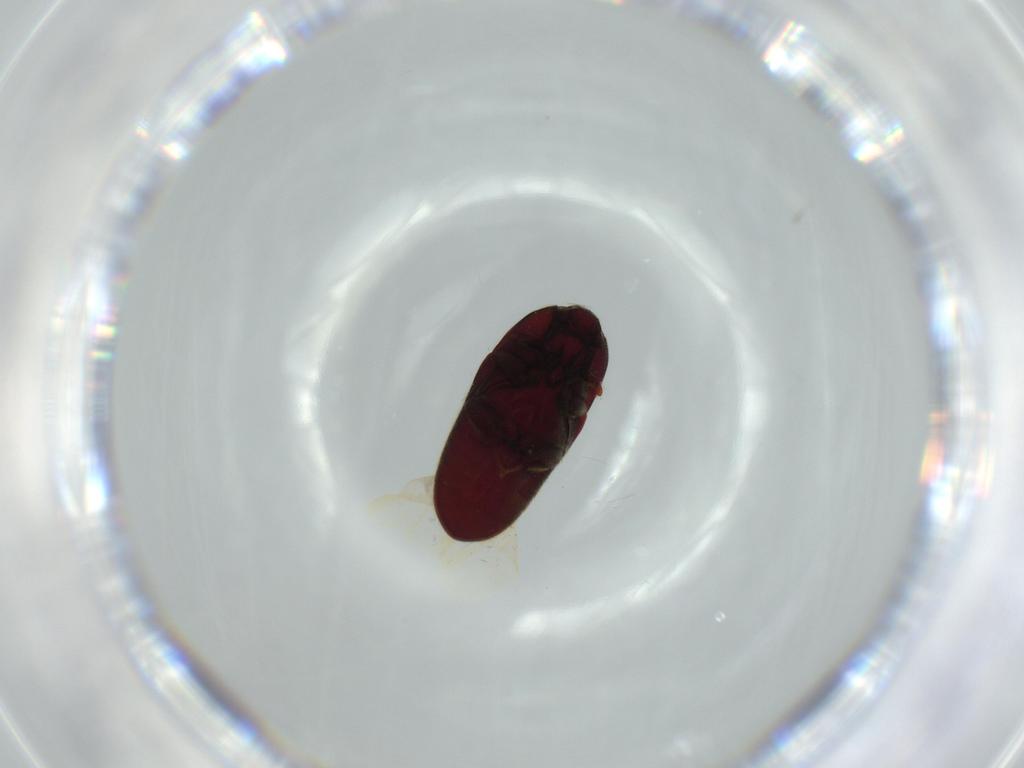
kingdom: Animalia
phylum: Arthropoda
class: Insecta
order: Coleoptera
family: Throscidae
